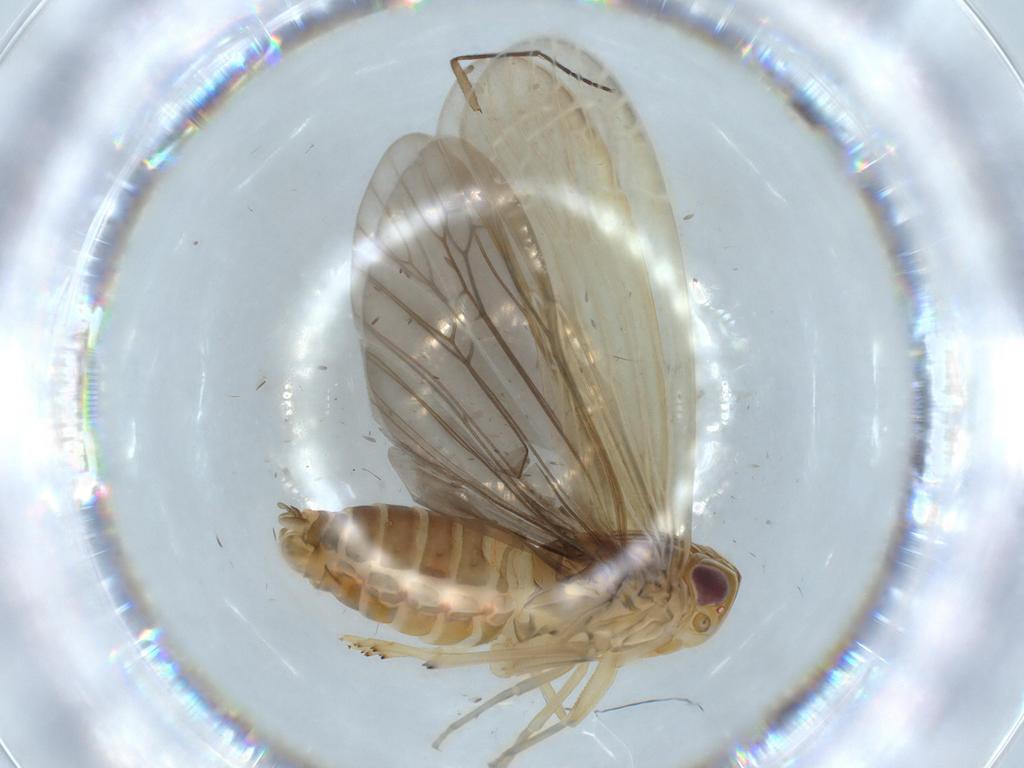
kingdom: Animalia
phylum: Arthropoda
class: Insecta
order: Hemiptera
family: Achilidae
